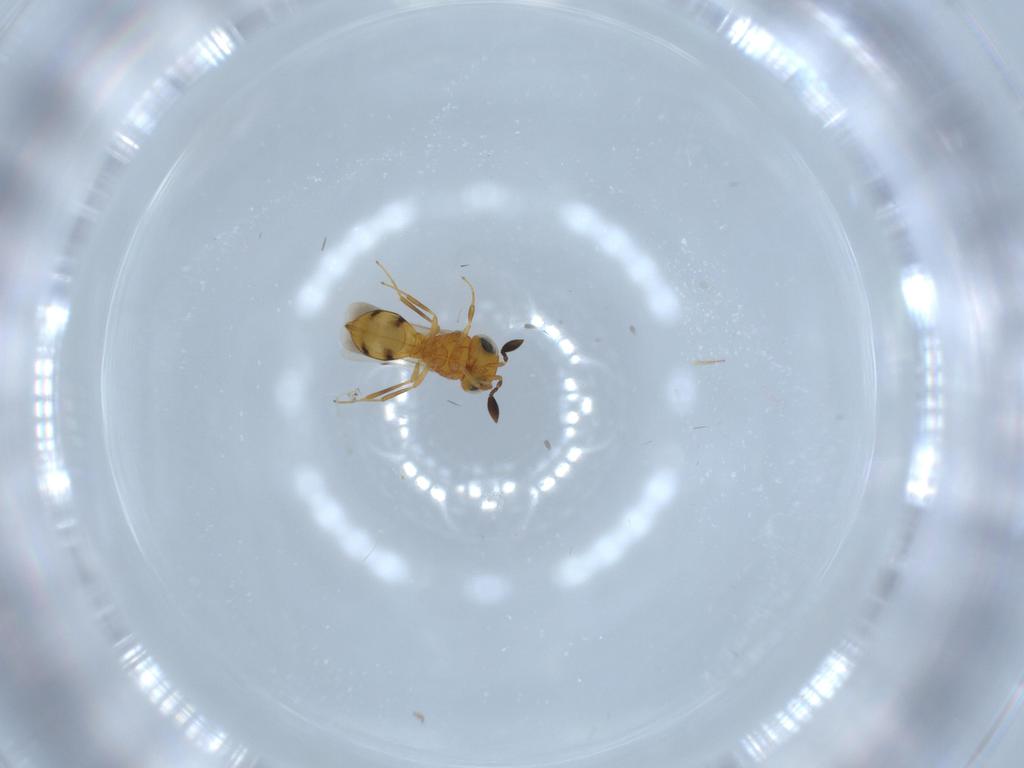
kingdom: Animalia
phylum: Arthropoda
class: Insecta
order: Hymenoptera
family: Scelionidae
